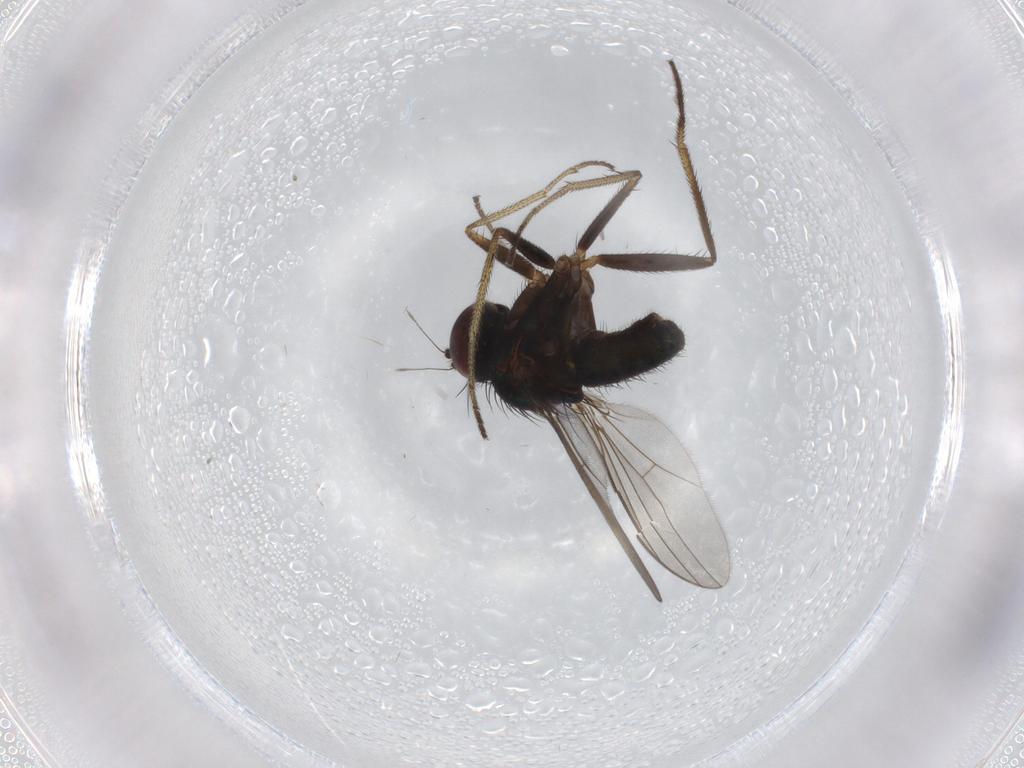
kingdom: Animalia
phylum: Arthropoda
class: Insecta
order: Diptera
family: Dolichopodidae
